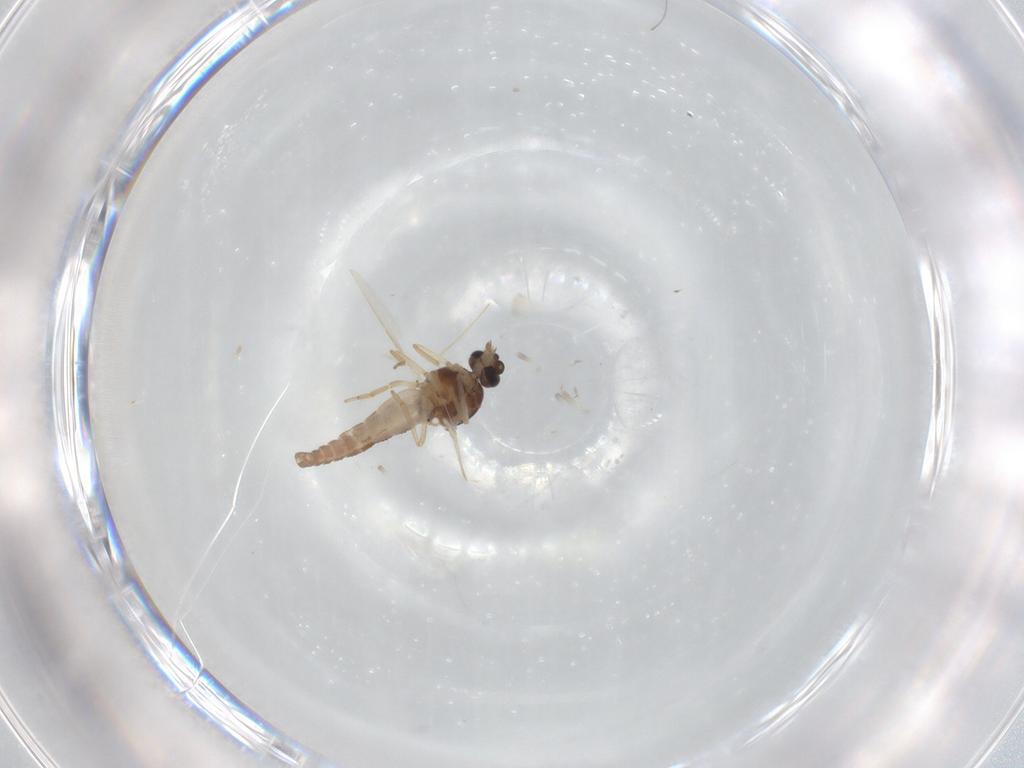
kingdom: Animalia
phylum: Arthropoda
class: Insecta
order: Diptera
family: Ceratopogonidae
